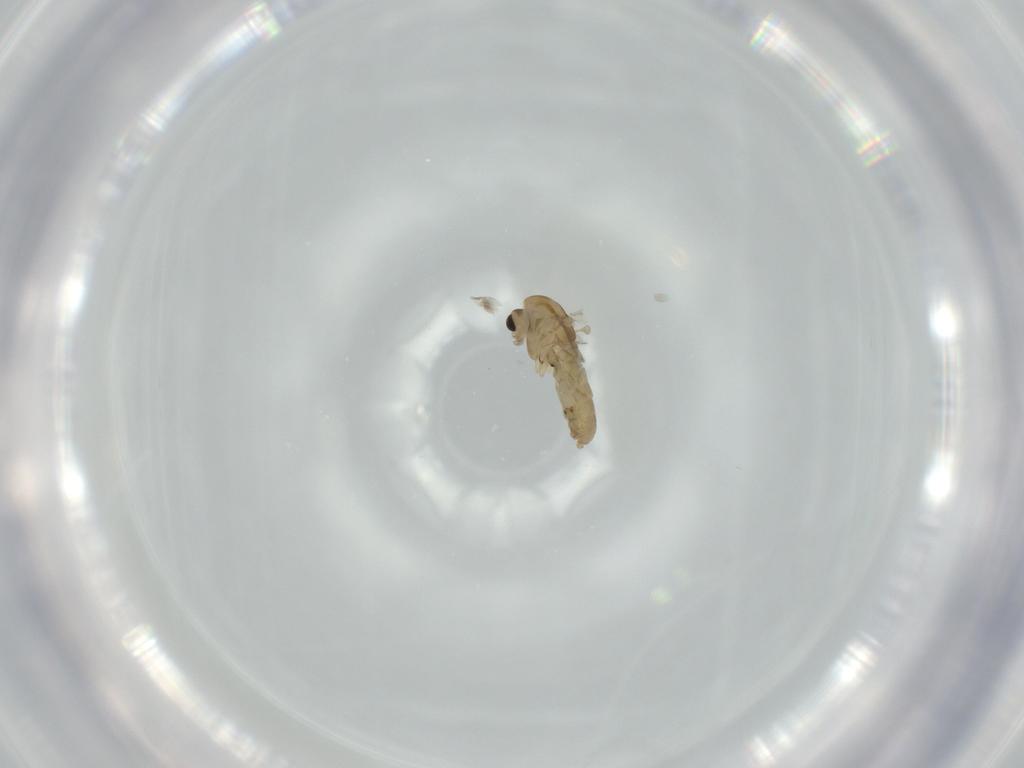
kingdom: Animalia
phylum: Arthropoda
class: Insecta
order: Diptera
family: Chironomidae
